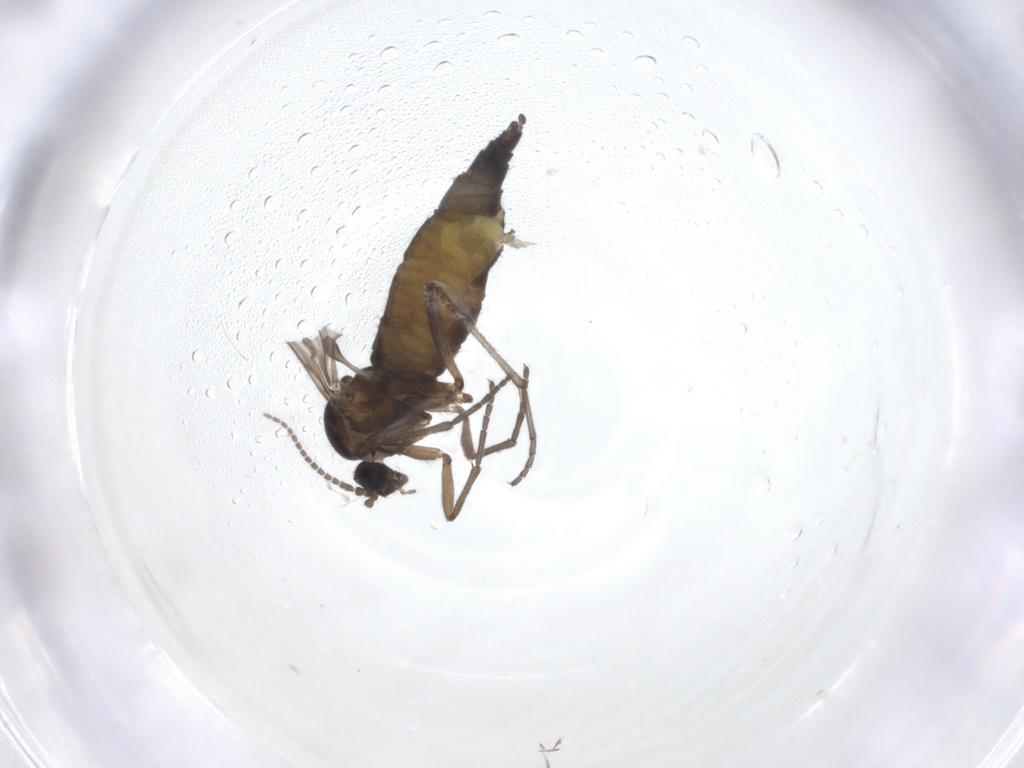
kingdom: Animalia
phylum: Arthropoda
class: Insecta
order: Diptera
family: Sciaridae
